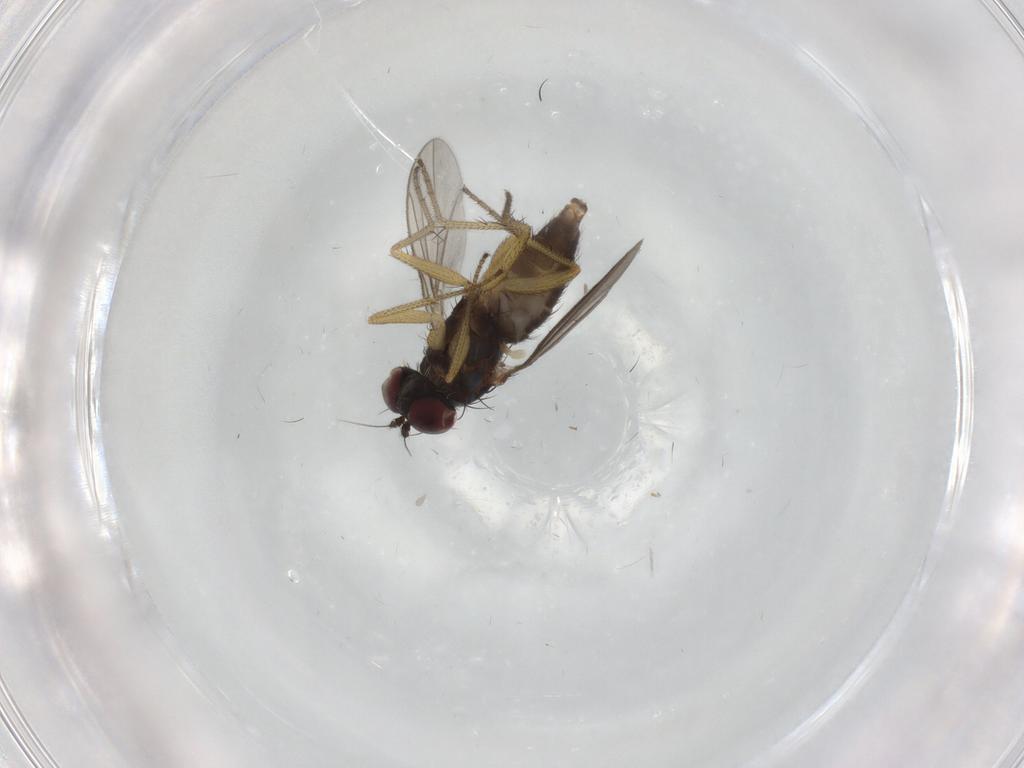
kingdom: Animalia
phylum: Arthropoda
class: Insecta
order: Diptera
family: Dolichopodidae
